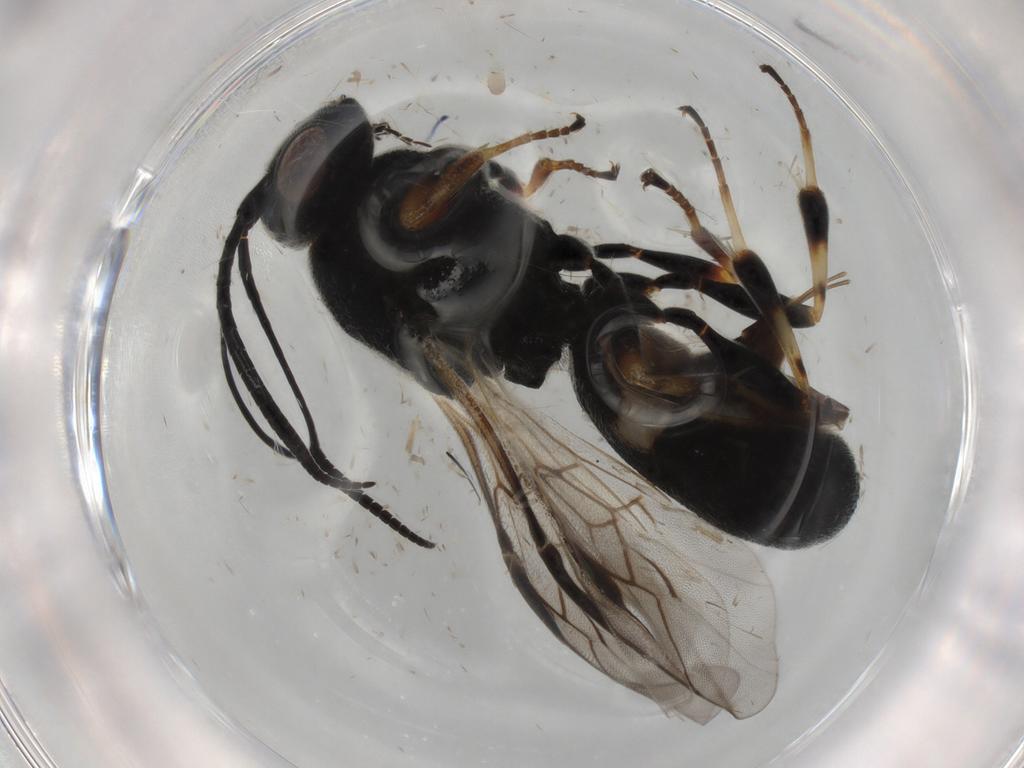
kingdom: Animalia
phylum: Arthropoda
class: Insecta
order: Hymenoptera
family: Braconidae
